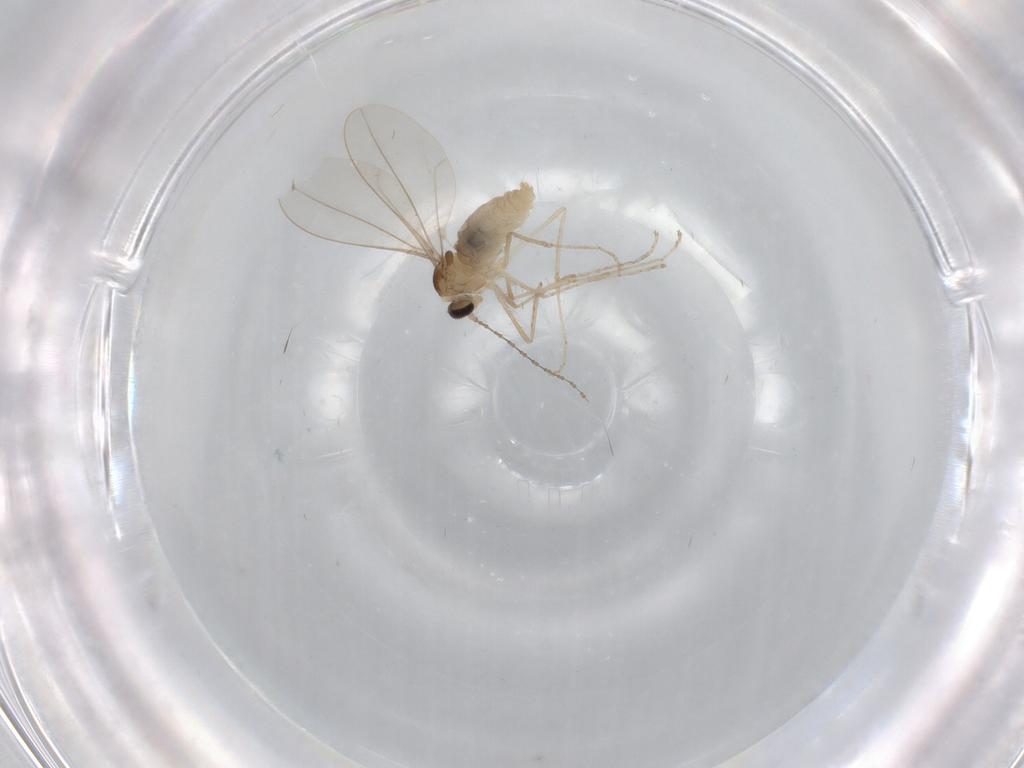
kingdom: Animalia
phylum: Arthropoda
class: Insecta
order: Diptera
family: Cecidomyiidae
